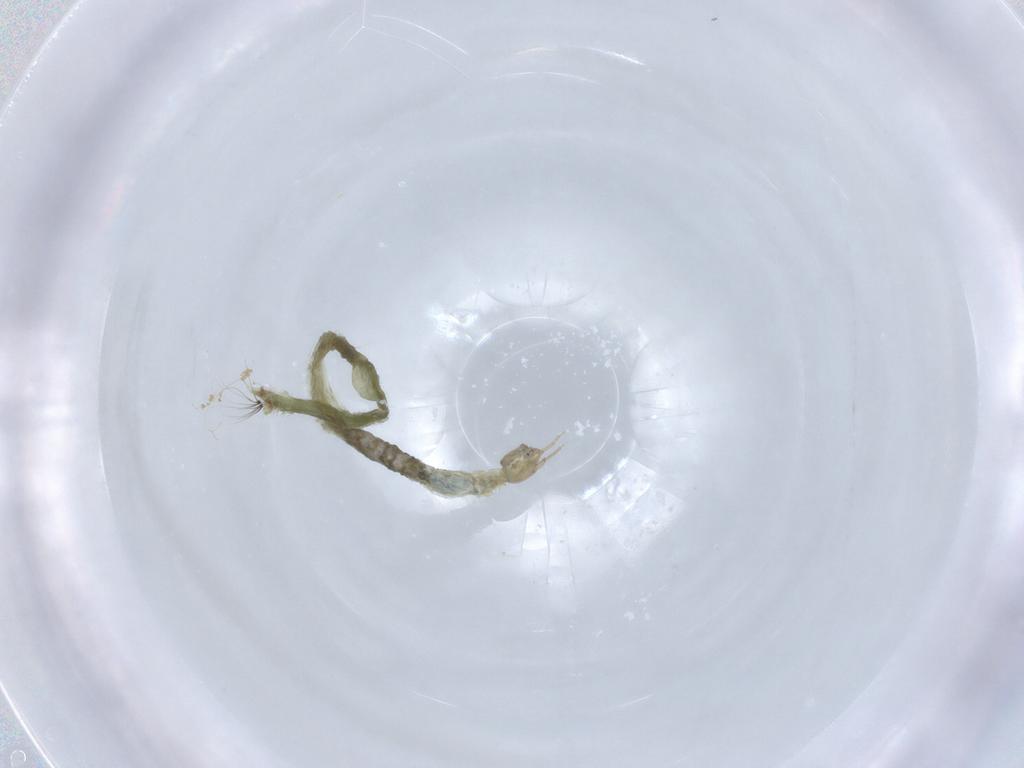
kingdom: Animalia
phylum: Arthropoda
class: Insecta
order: Diptera
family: Chironomidae
